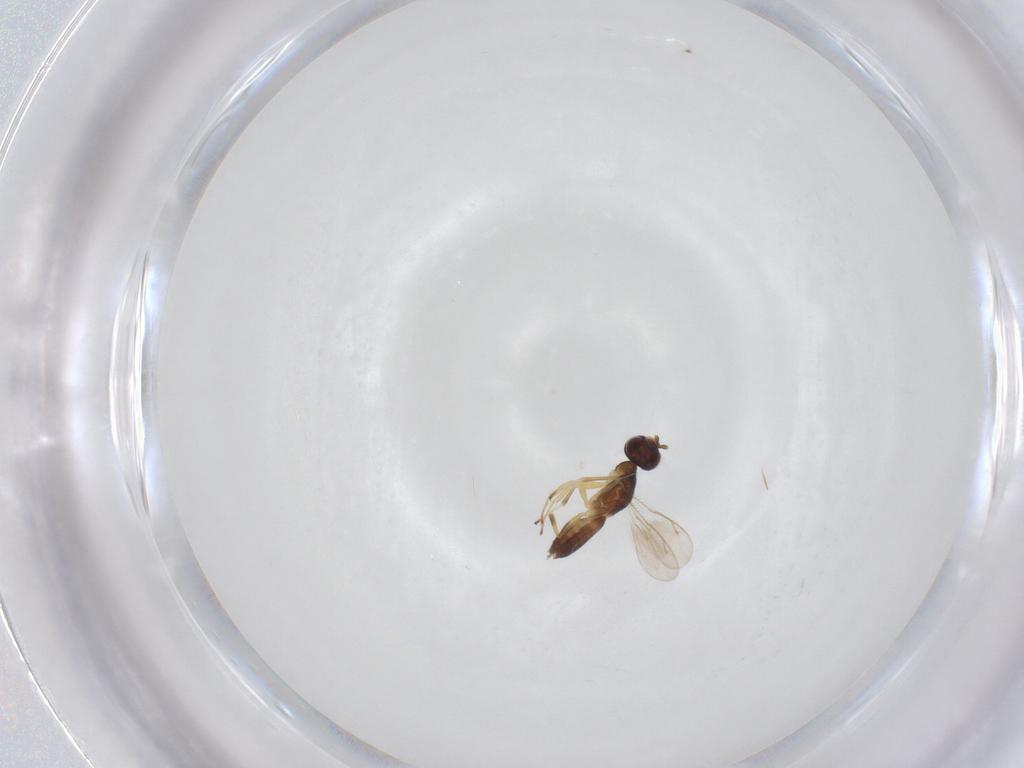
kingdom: Animalia
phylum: Arthropoda
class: Insecta
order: Hymenoptera
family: Eupelmidae
